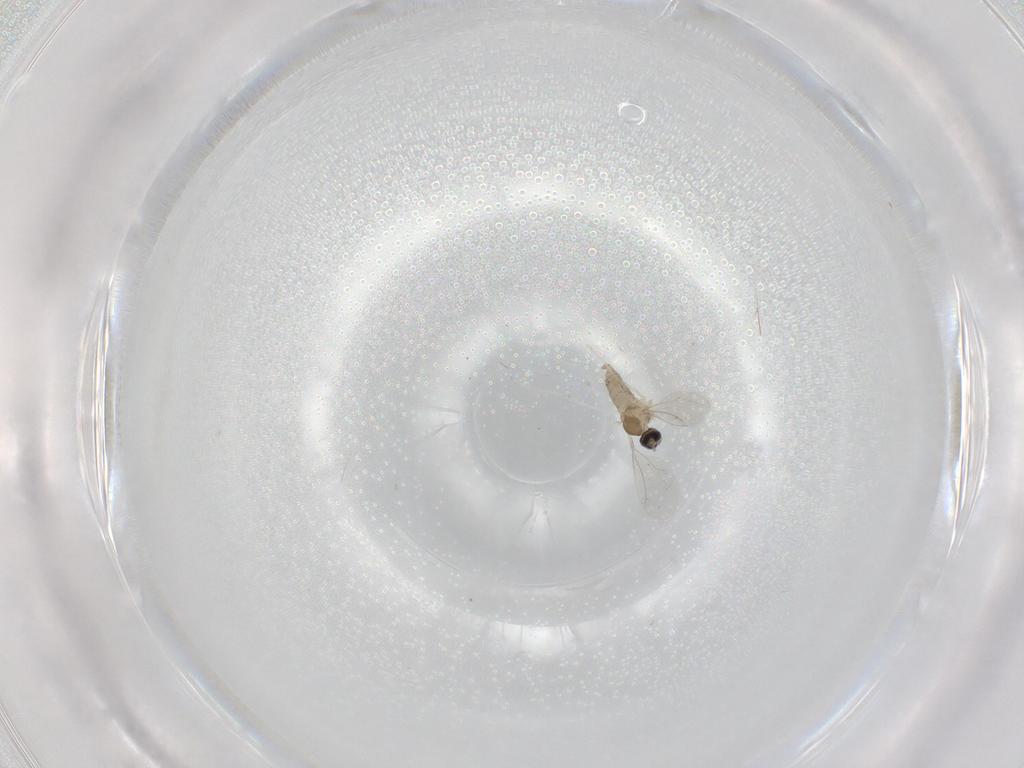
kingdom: Animalia
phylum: Arthropoda
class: Insecta
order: Diptera
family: Cecidomyiidae
